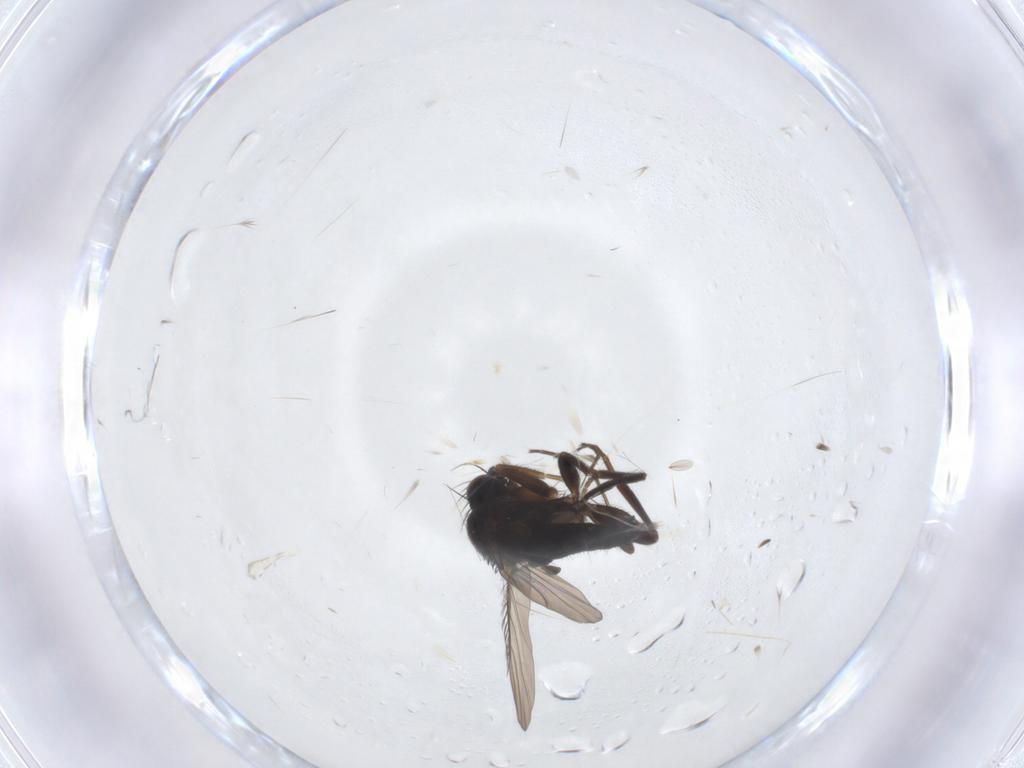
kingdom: Animalia
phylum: Arthropoda
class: Insecta
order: Diptera
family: Phoridae
